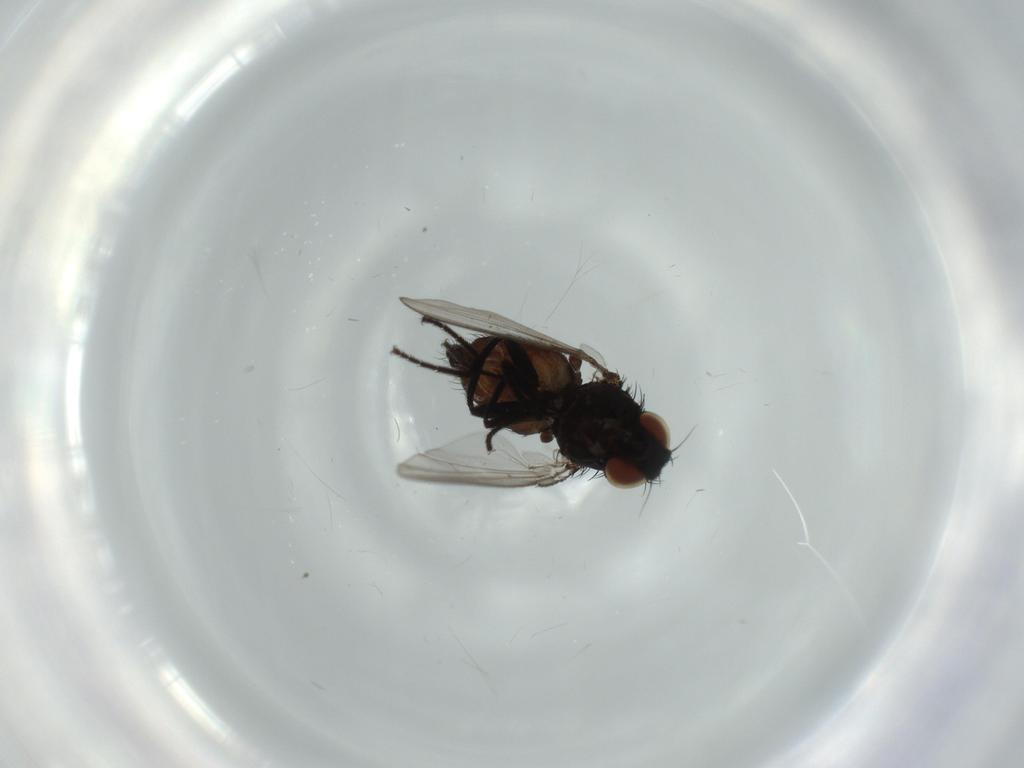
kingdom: Animalia
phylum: Arthropoda
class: Insecta
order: Diptera
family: Milichiidae
